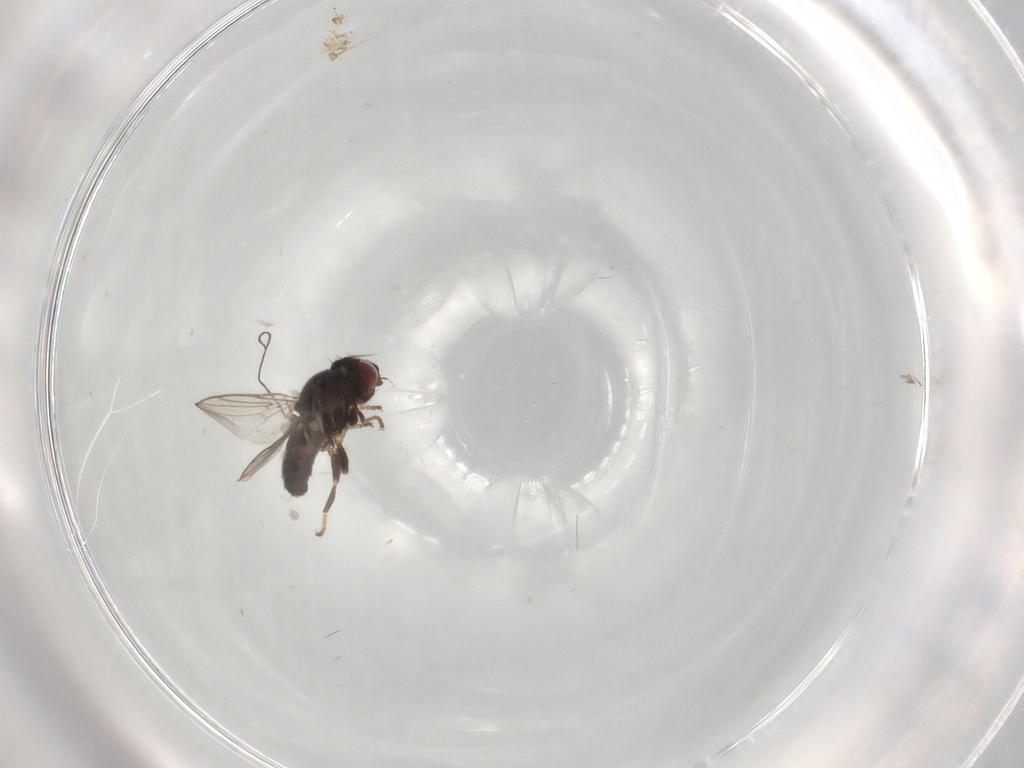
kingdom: Animalia
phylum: Arthropoda
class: Insecta
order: Diptera
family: Chloropidae
